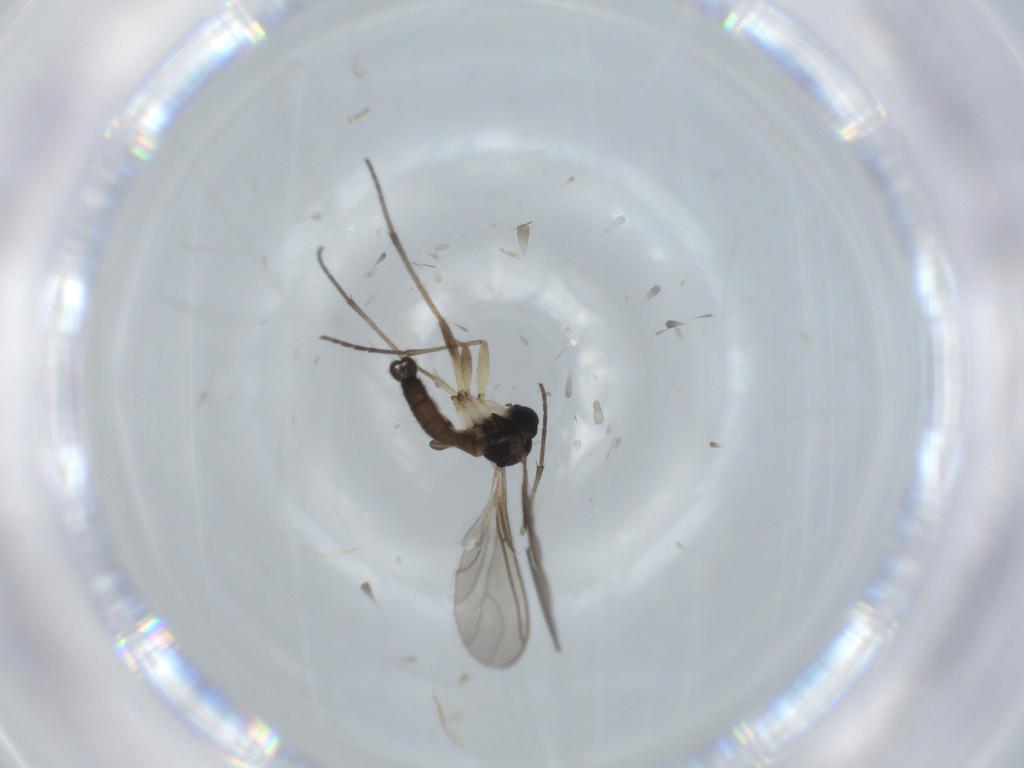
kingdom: Animalia
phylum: Arthropoda
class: Insecta
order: Diptera
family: Sciaridae
